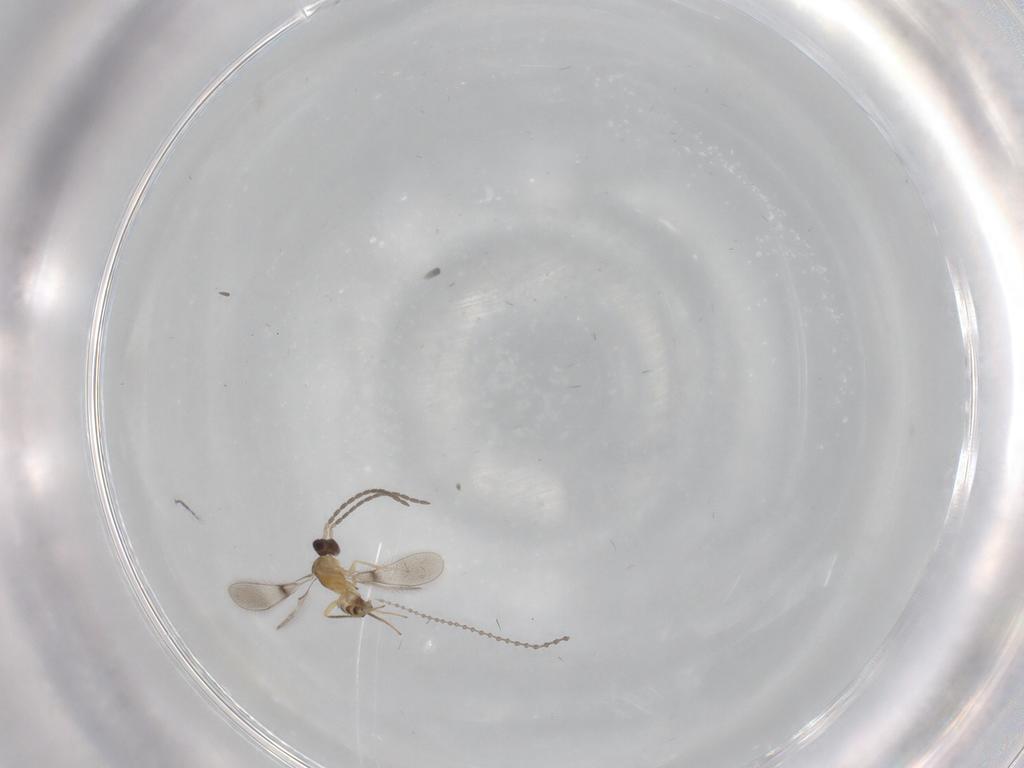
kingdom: Animalia
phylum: Arthropoda
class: Insecta
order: Diptera
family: Cecidomyiidae
